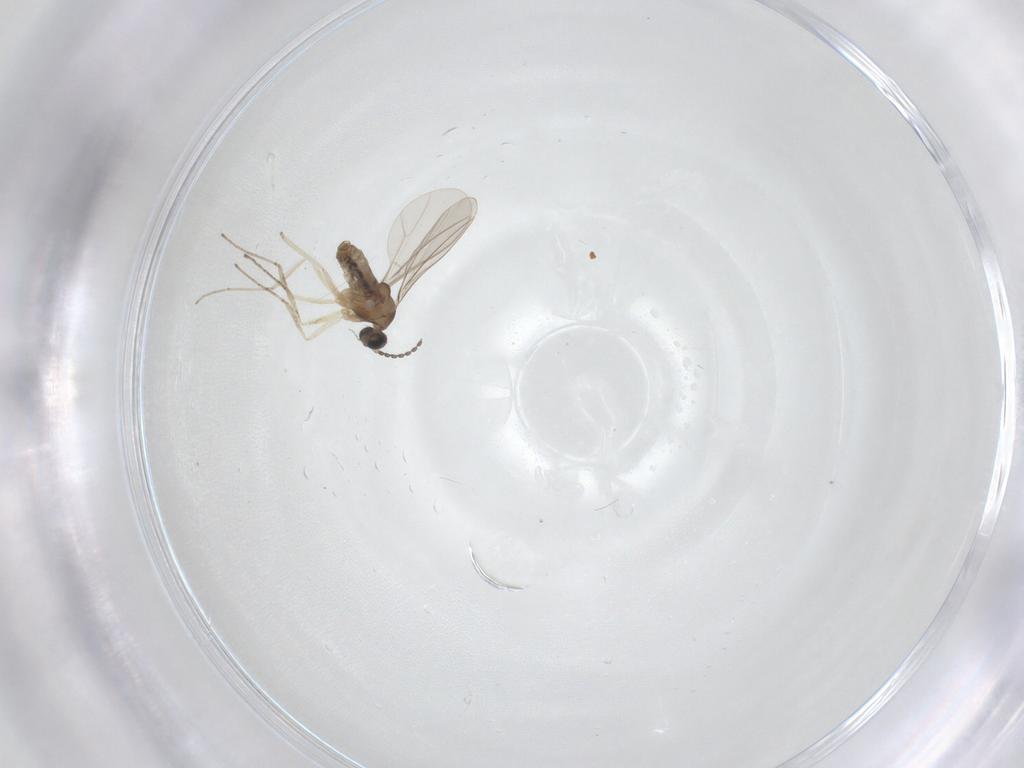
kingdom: Animalia
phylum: Arthropoda
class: Insecta
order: Diptera
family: Cecidomyiidae
